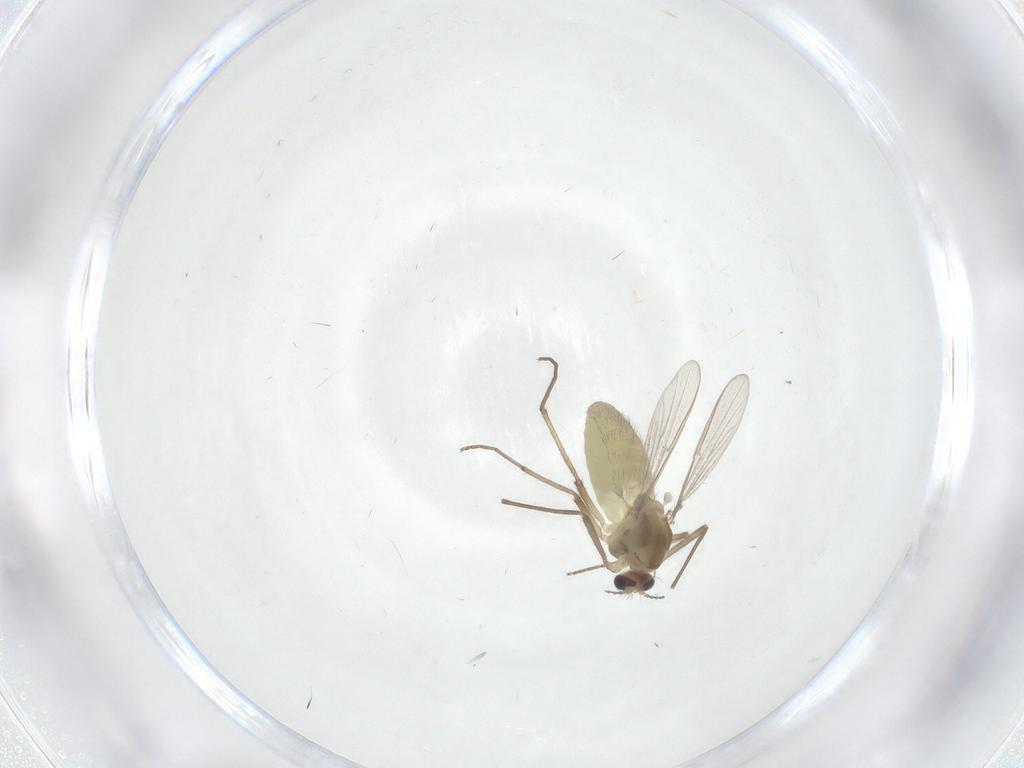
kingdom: Animalia
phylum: Arthropoda
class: Insecta
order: Diptera
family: Chironomidae
